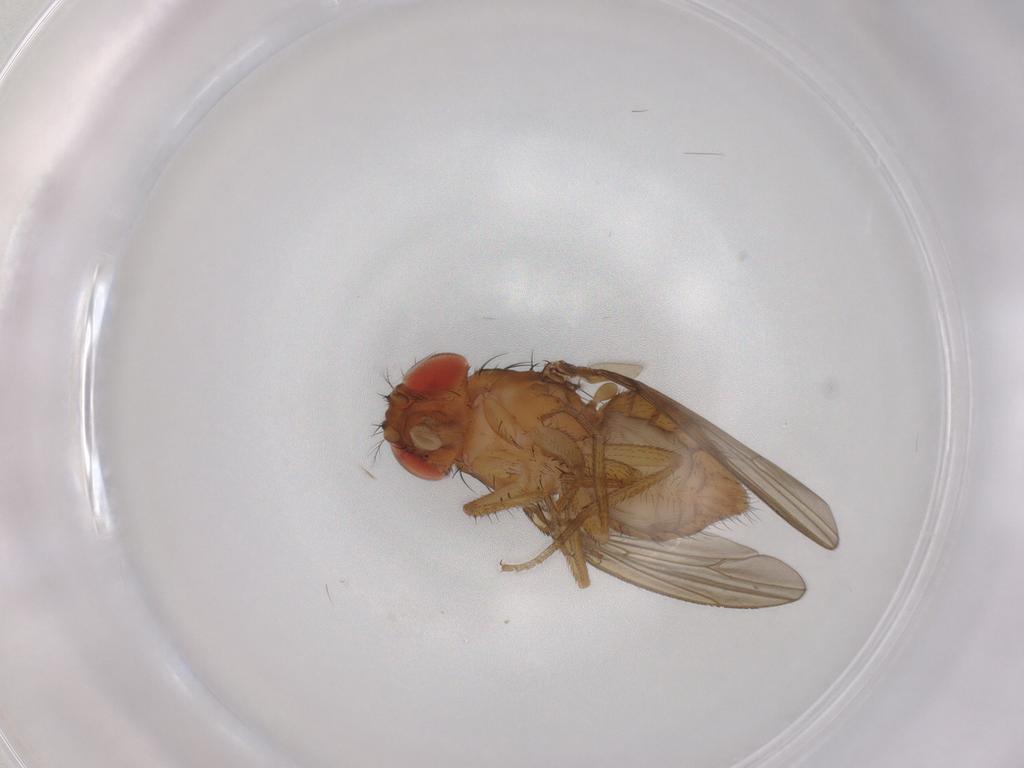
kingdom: Animalia
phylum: Arthropoda
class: Insecta
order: Diptera
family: Drosophilidae
